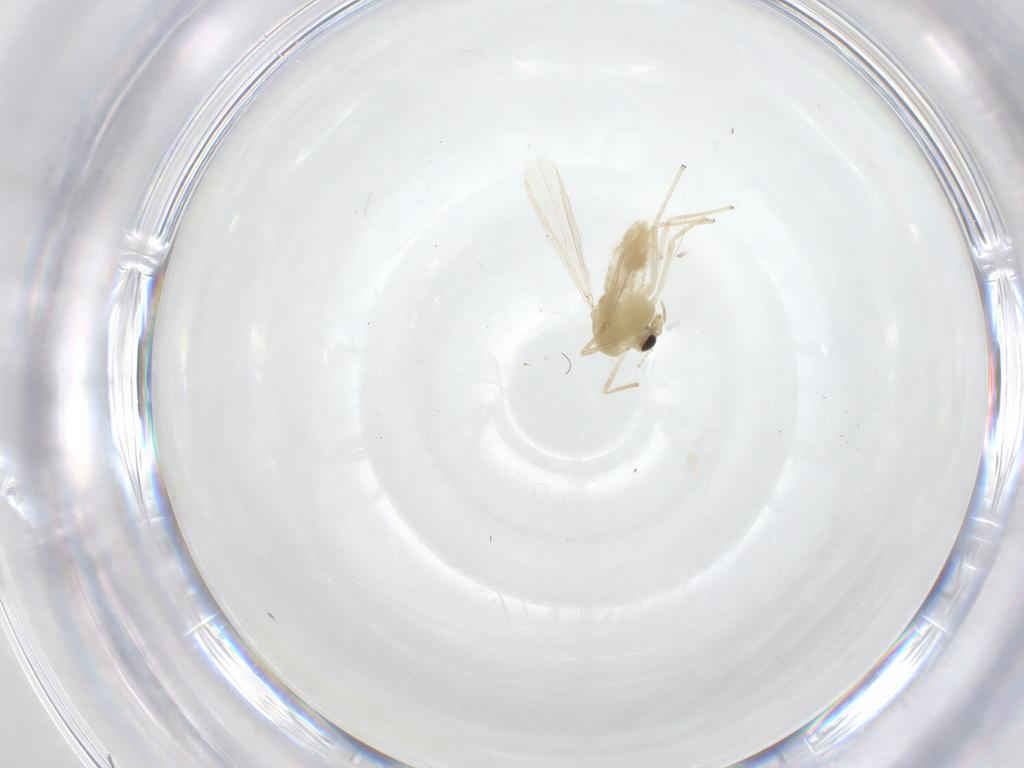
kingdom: Animalia
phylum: Arthropoda
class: Insecta
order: Diptera
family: Chironomidae
